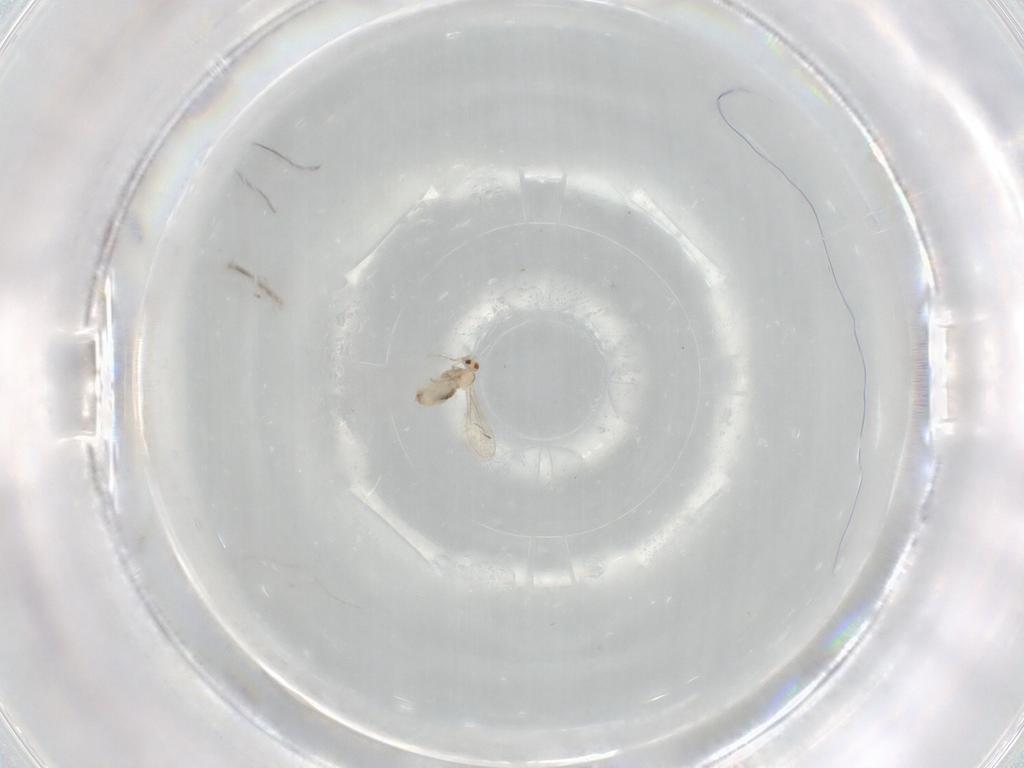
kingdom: Animalia
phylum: Arthropoda
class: Insecta
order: Diptera
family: Cecidomyiidae
